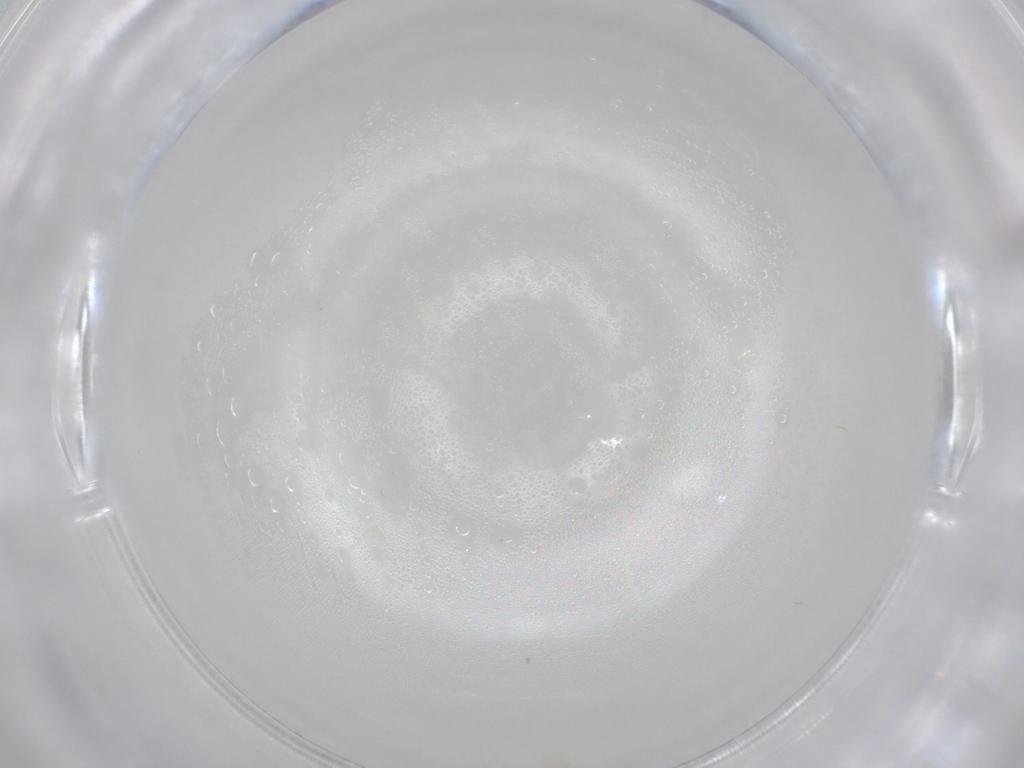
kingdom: Animalia
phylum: Arthropoda
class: Insecta
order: Diptera
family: Chironomidae
